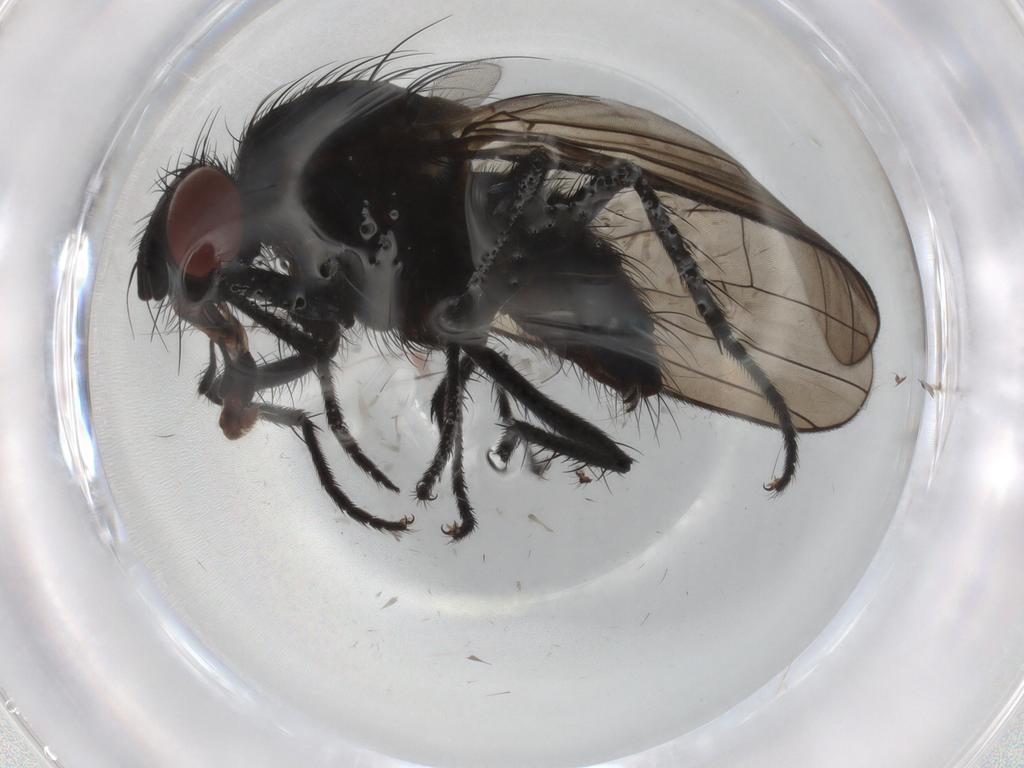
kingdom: Animalia
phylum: Arthropoda
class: Insecta
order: Diptera
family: Anthomyiidae
